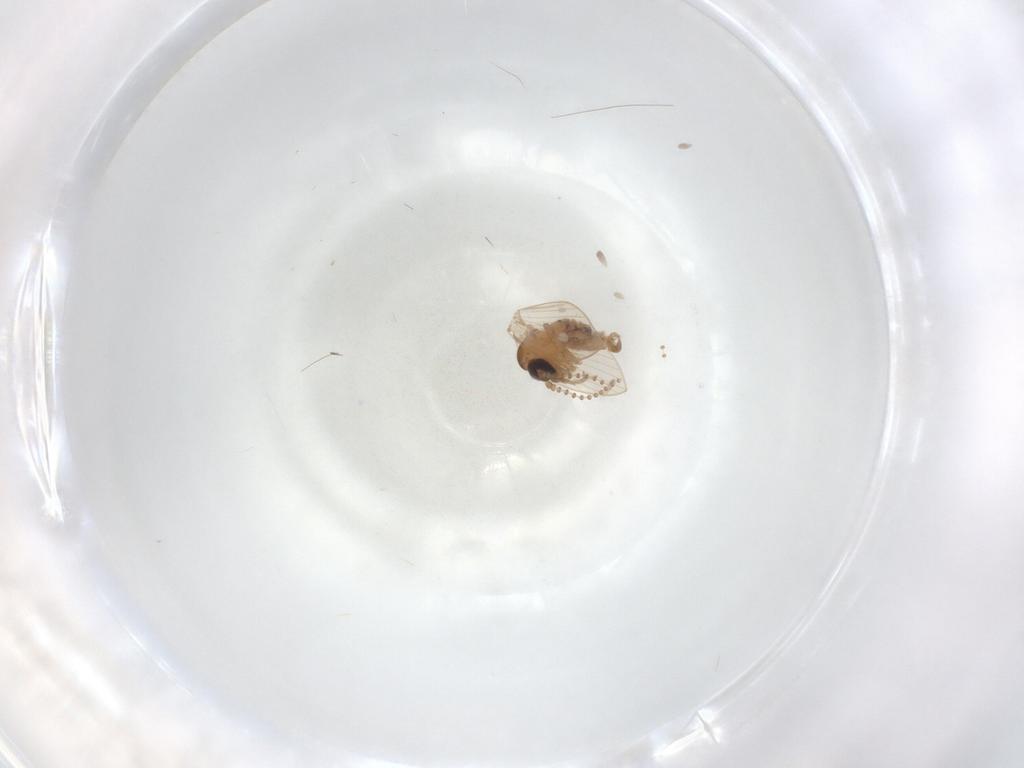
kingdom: Animalia
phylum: Arthropoda
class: Insecta
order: Diptera
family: Psychodidae
